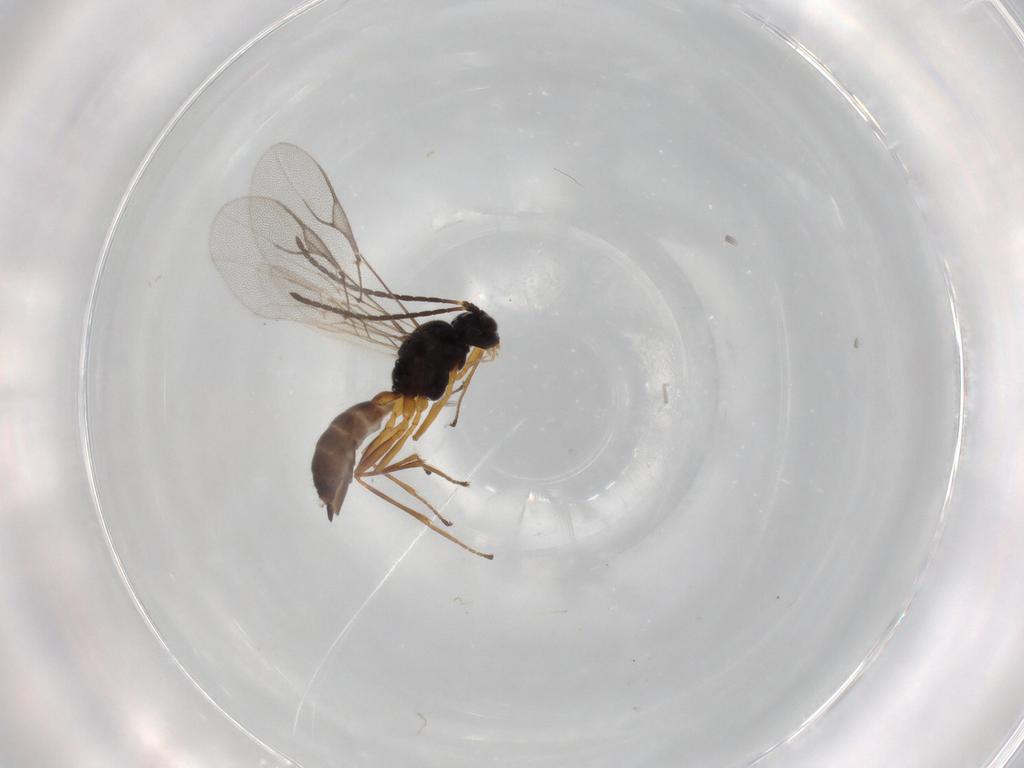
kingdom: Animalia
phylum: Arthropoda
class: Insecta
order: Hymenoptera
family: Braconidae
